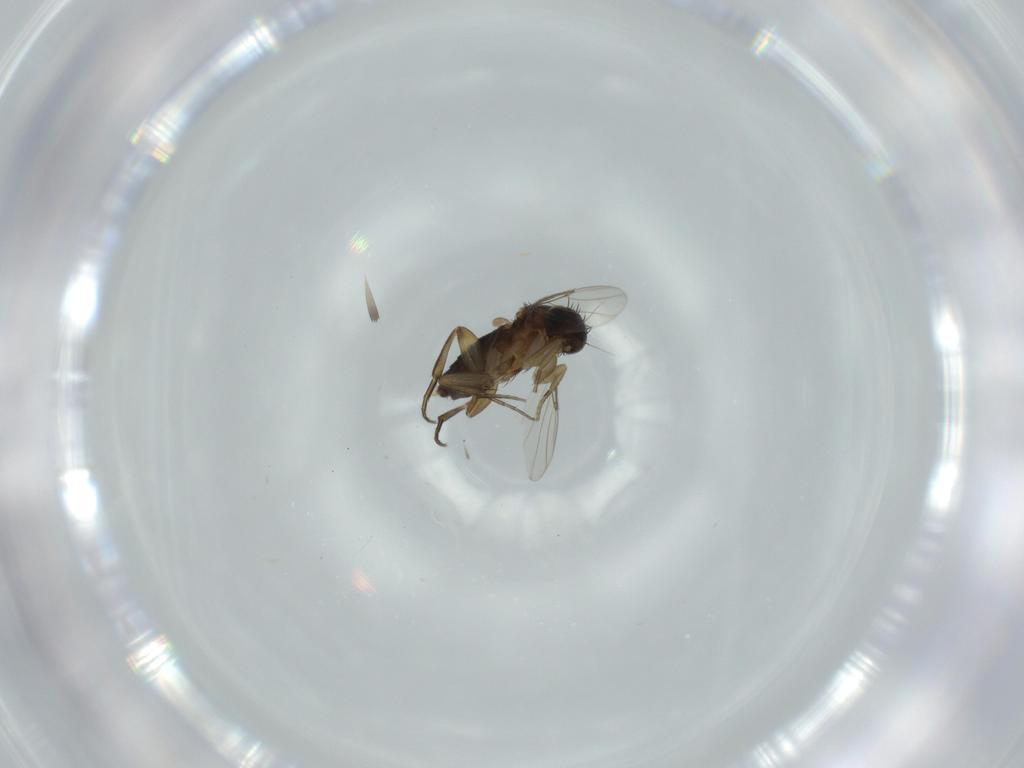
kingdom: Animalia
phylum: Arthropoda
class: Insecta
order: Diptera
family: Phoridae
